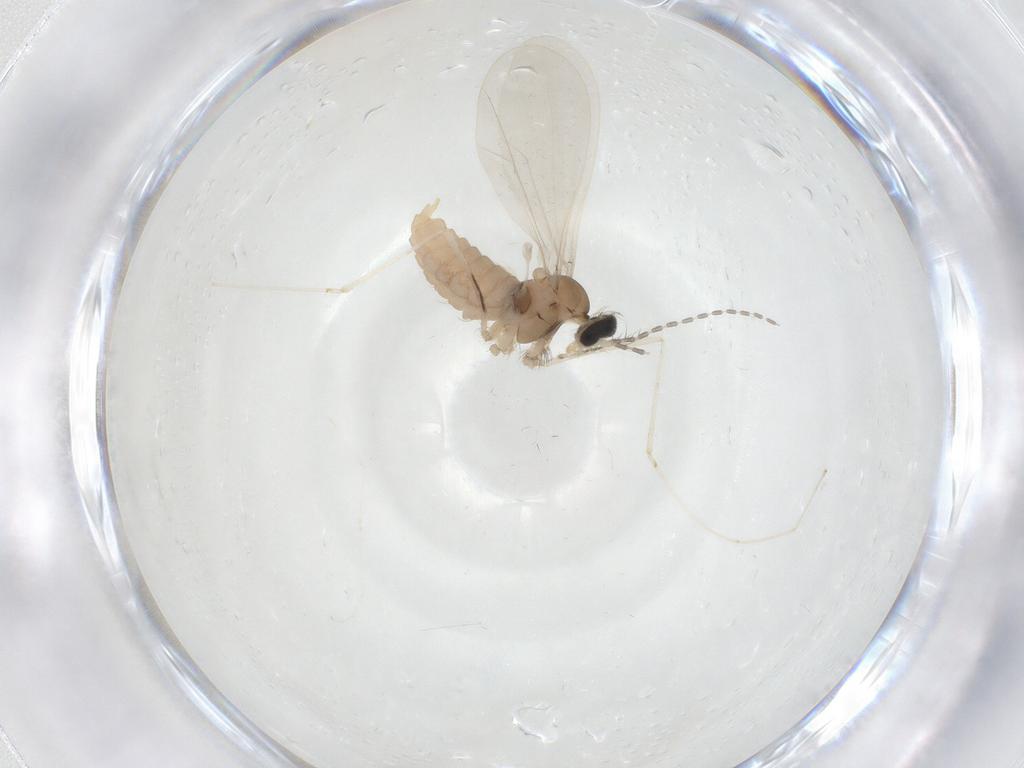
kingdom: Animalia
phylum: Arthropoda
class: Insecta
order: Diptera
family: Cecidomyiidae
